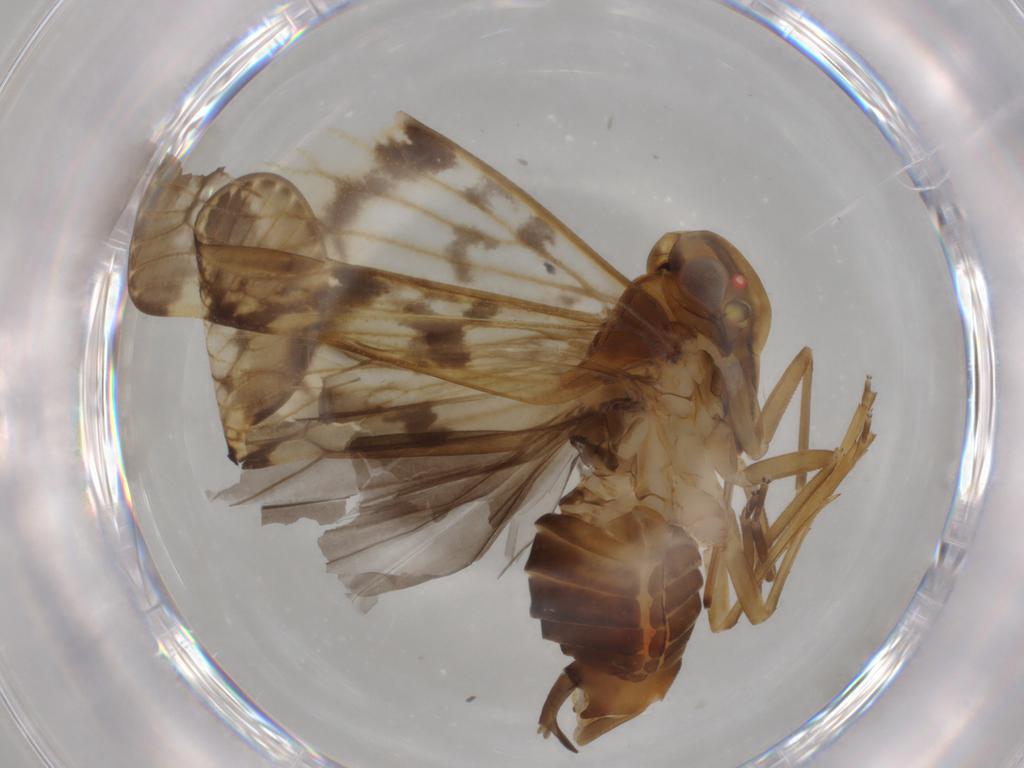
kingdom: Animalia
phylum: Arthropoda
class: Insecta
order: Hemiptera
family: Cixiidae
